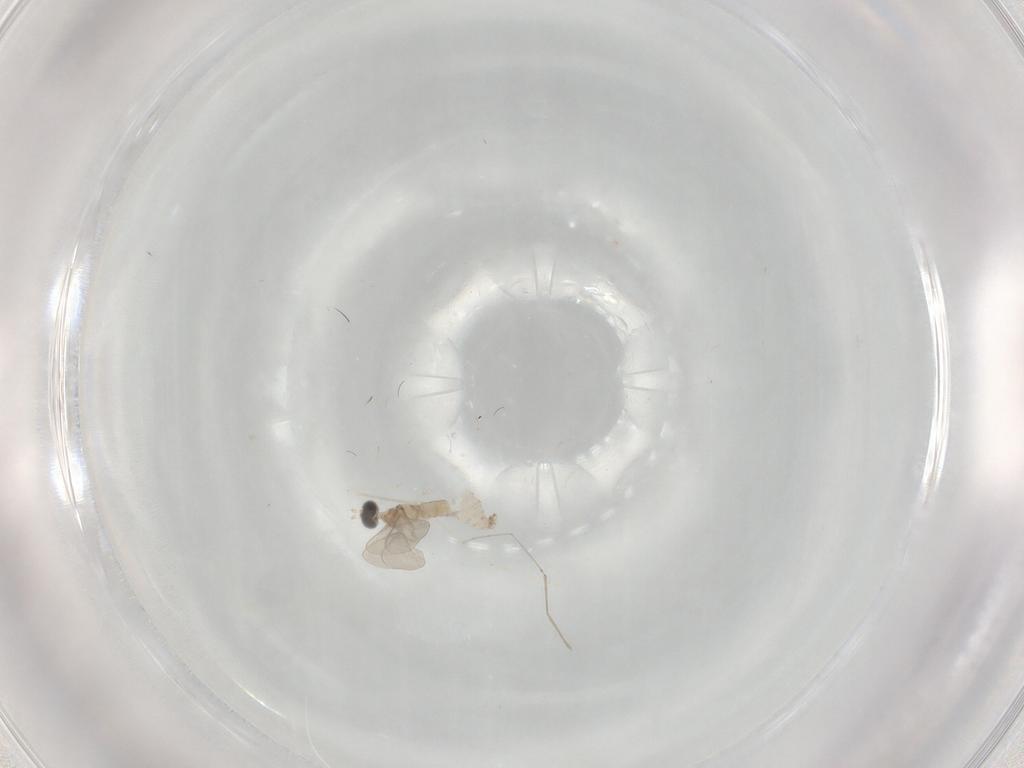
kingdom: Animalia
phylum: Arthropoda
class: Insecta
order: Diptera
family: Cecidomyiidae
